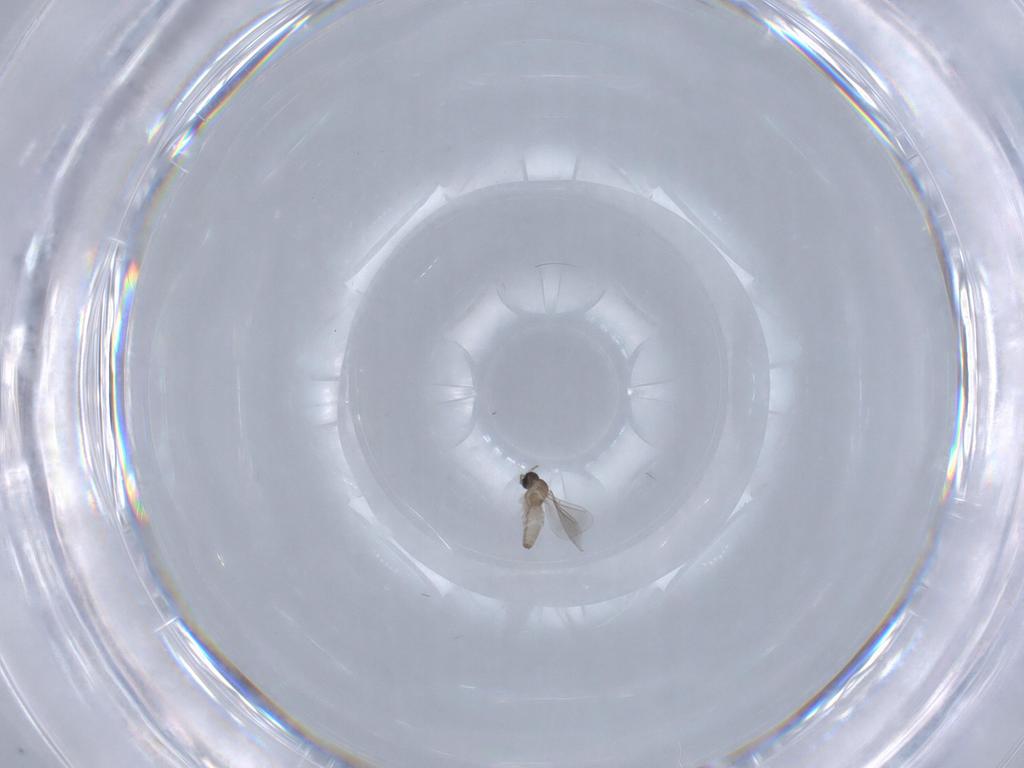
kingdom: Animalia
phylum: Arthropoda
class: Insecta
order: Diptera
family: Cecidomyiidae
